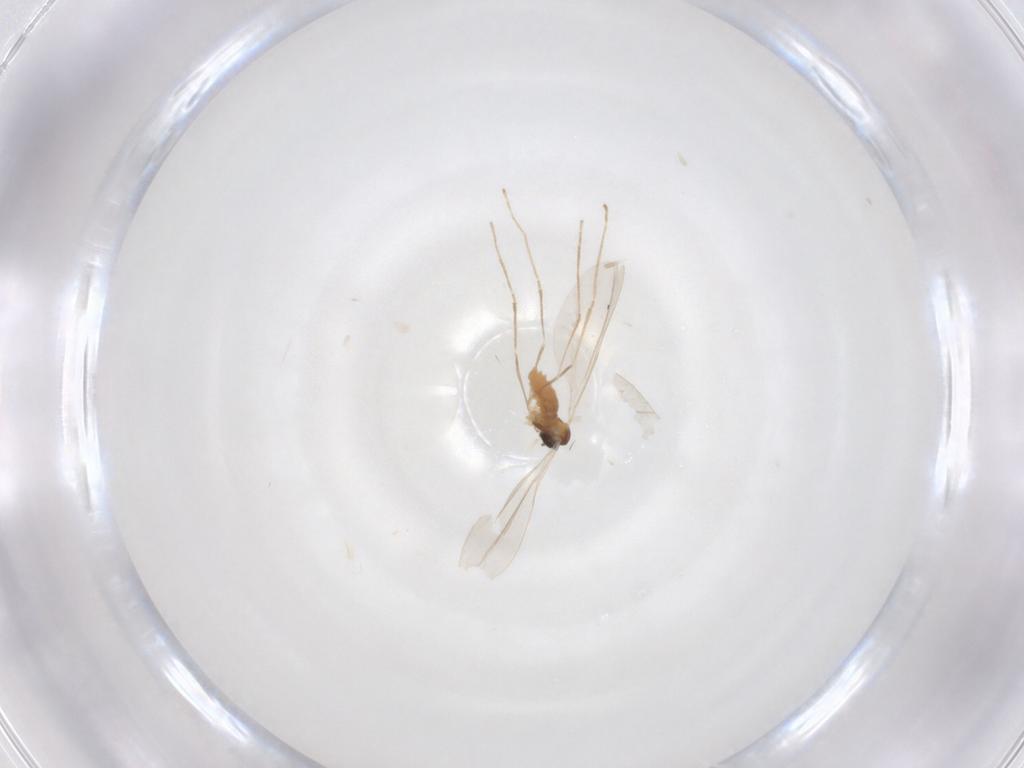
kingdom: Animalia
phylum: Arthropoda
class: Insecta
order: Diptera
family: Cecidomyiidae
